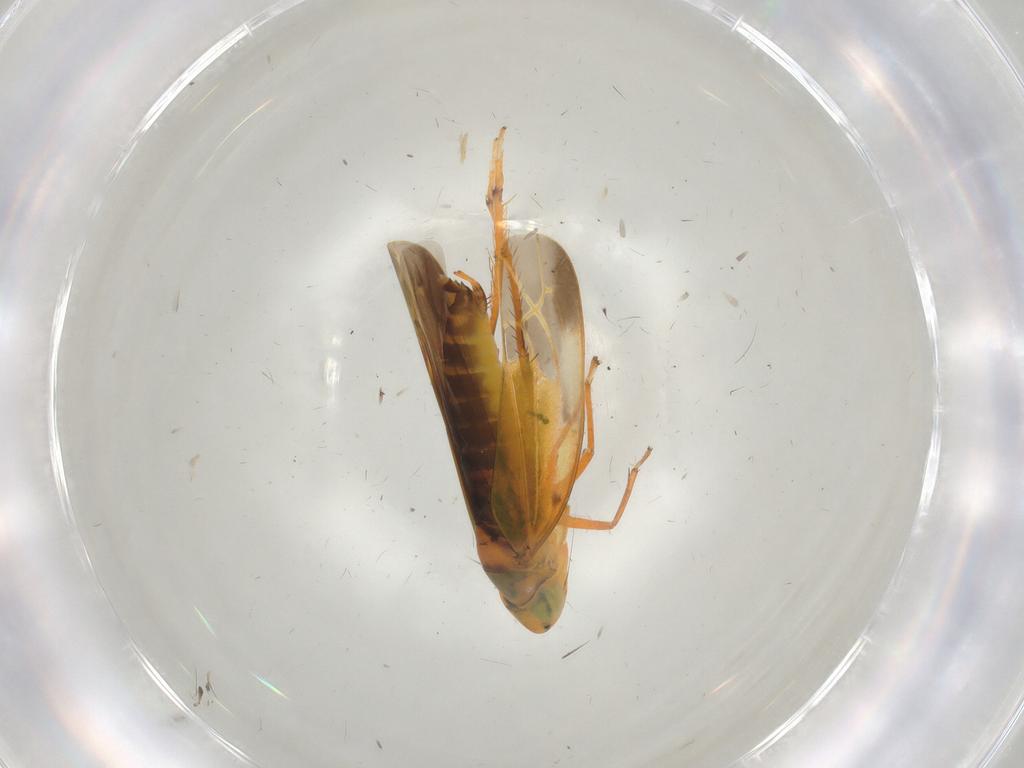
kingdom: Animalia
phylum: Arthropoda
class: Insecta
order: Hemiptera
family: Cicadellidae
